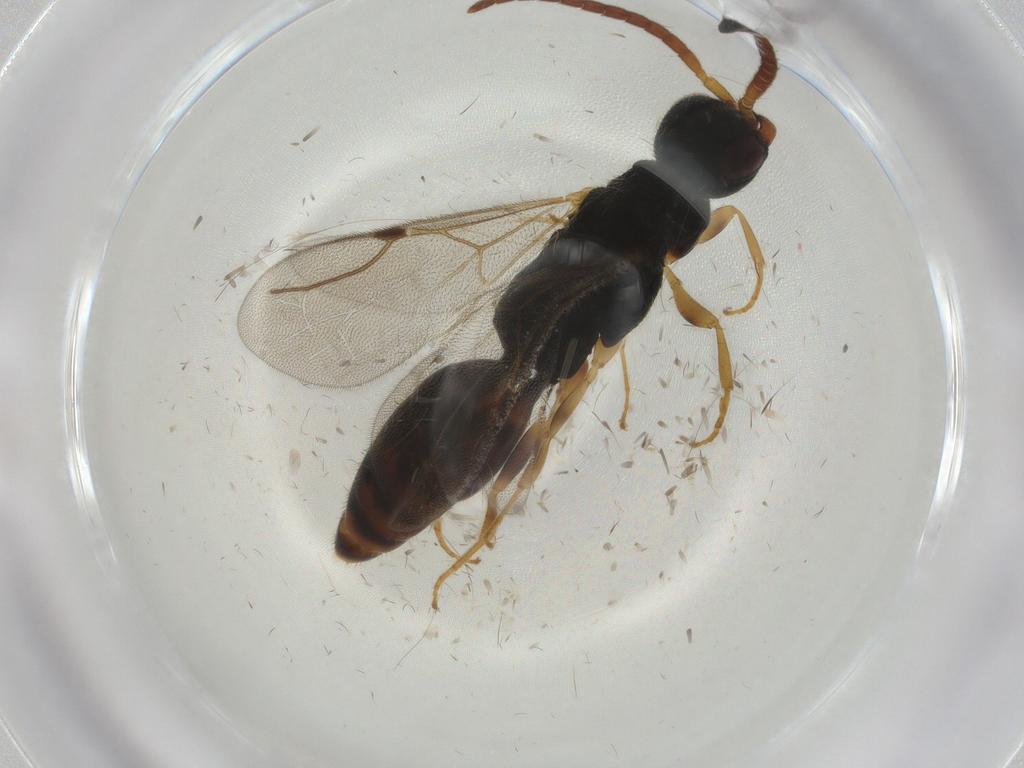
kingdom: Animalia
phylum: Arthropoda
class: Insecta
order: Hymenoptera
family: Bethylidae
